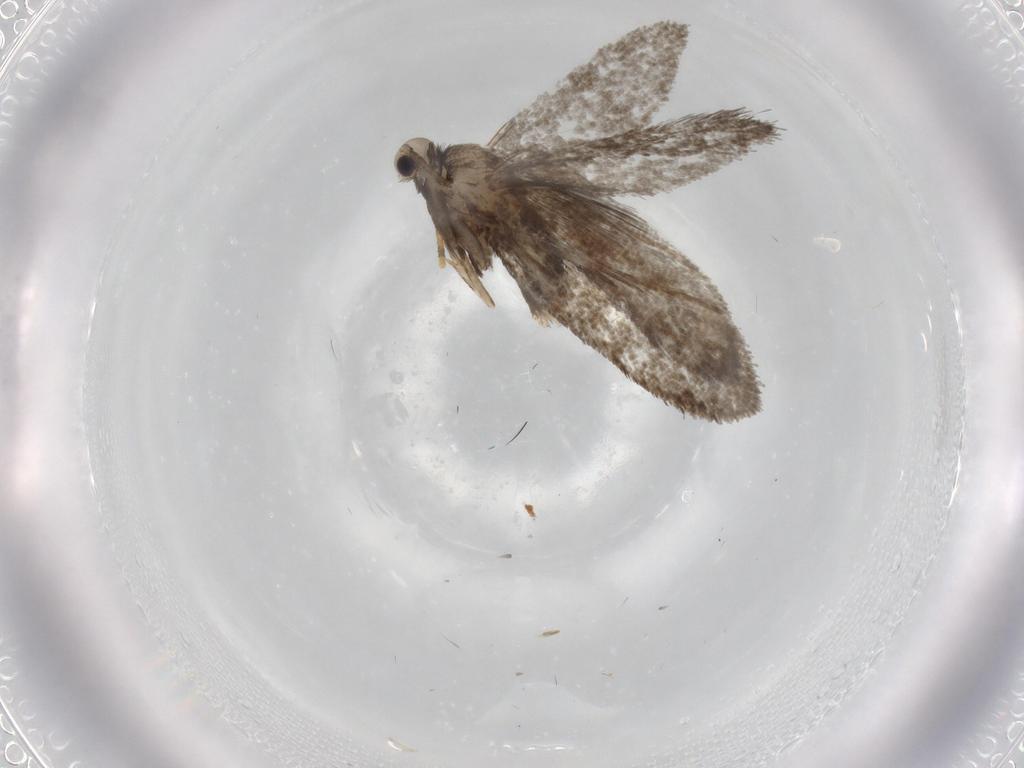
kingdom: Animalia
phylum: Arthropoda
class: Insecta
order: Lepidoptera
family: Psychidae
